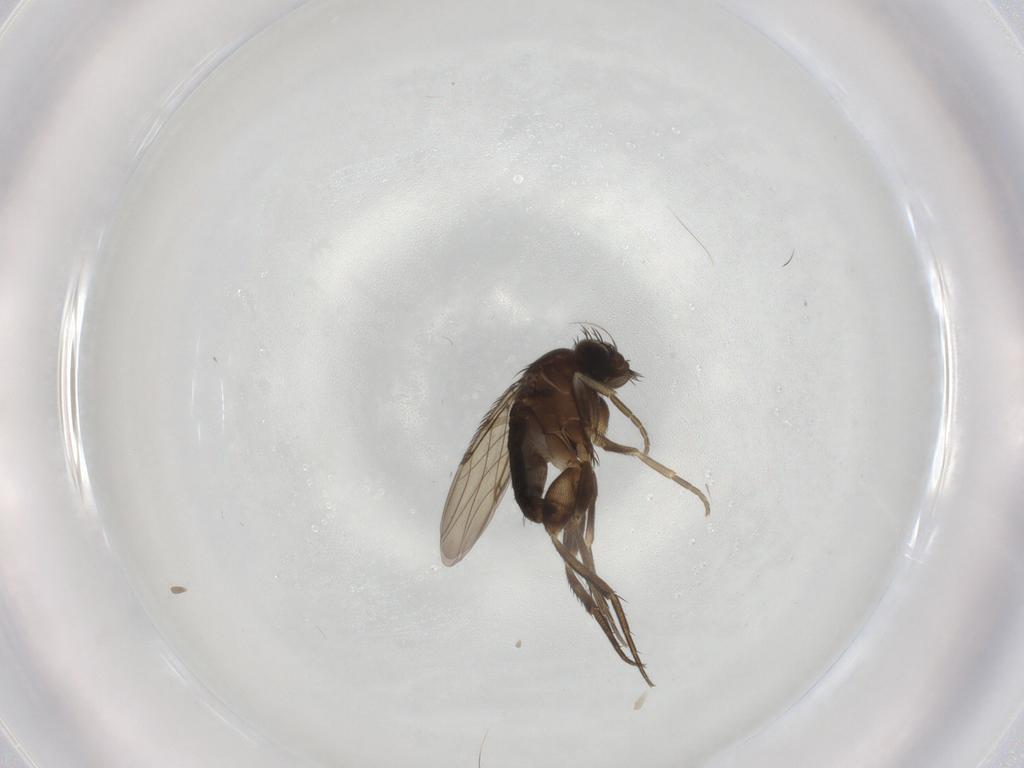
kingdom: Animalia
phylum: Arthropoda
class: Insecta
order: Diptera
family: Phoridae
